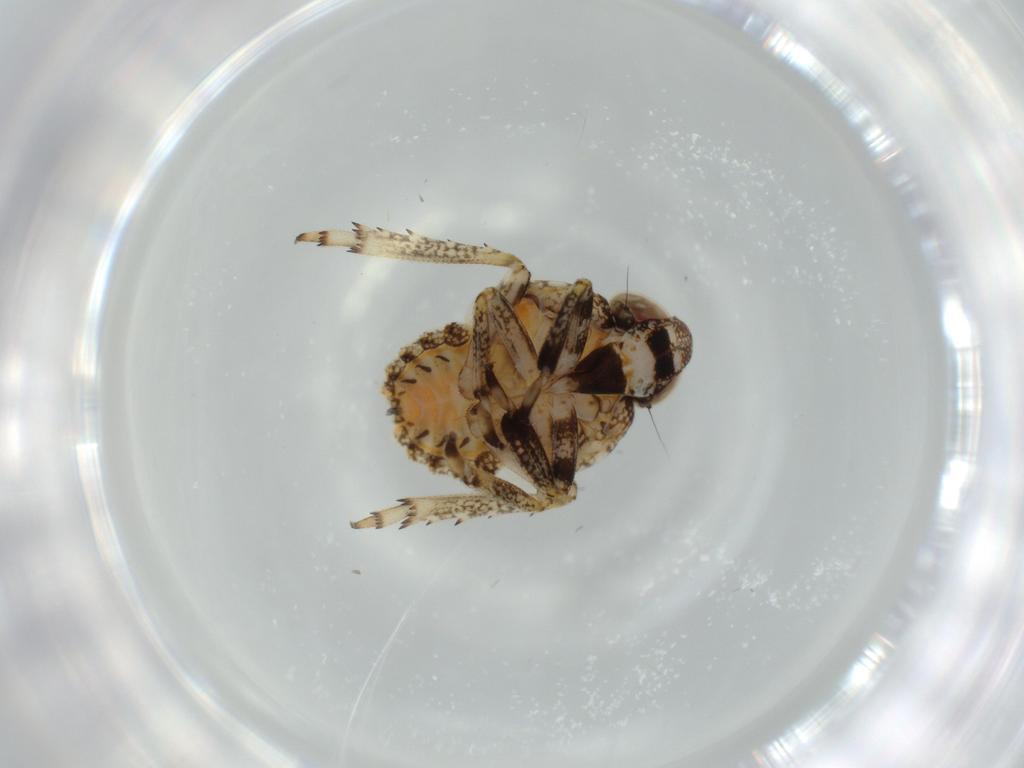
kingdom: Animalia
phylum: Arthropoda
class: Insecta
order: Hemiptera
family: Issidae
